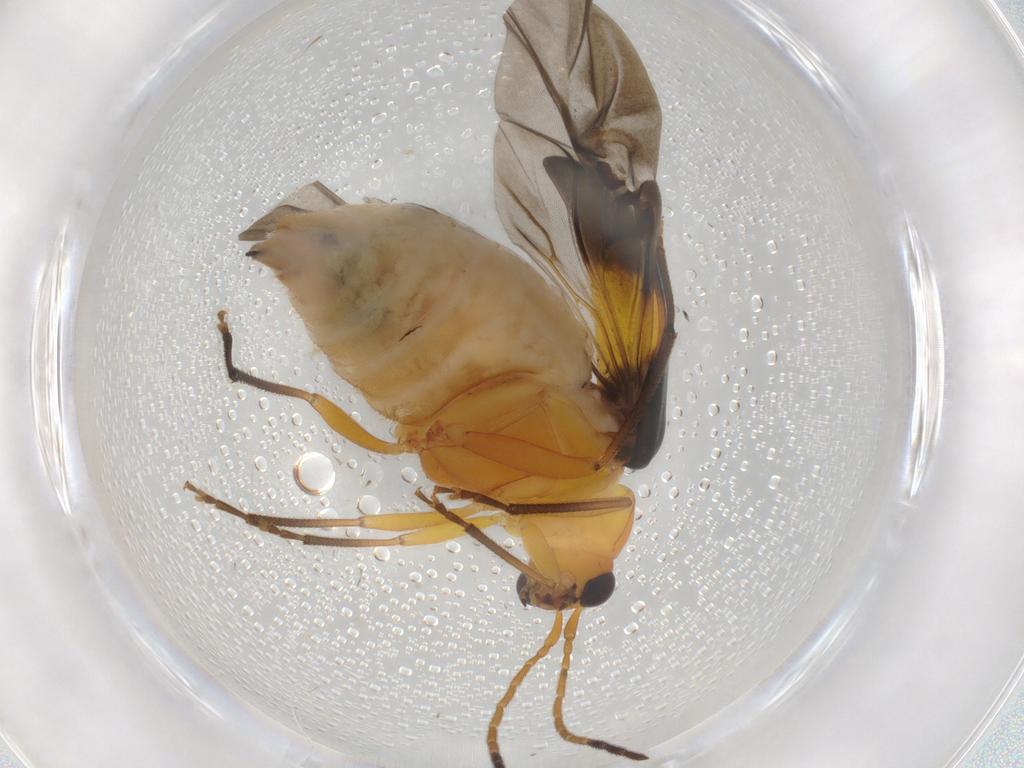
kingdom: Animalia
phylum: Arthropoda
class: Insecta
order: Coleoptera
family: Chrysomelidae
